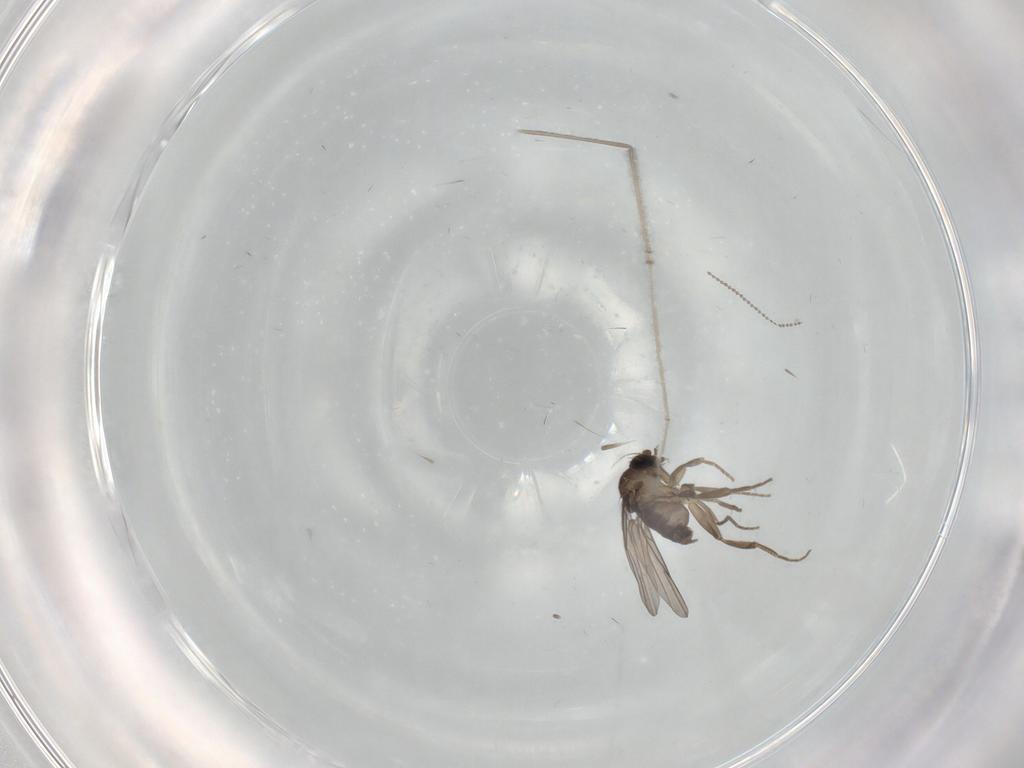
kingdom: Animalia
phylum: Arthropoda
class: Insecta
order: Diptera
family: Phoridae
